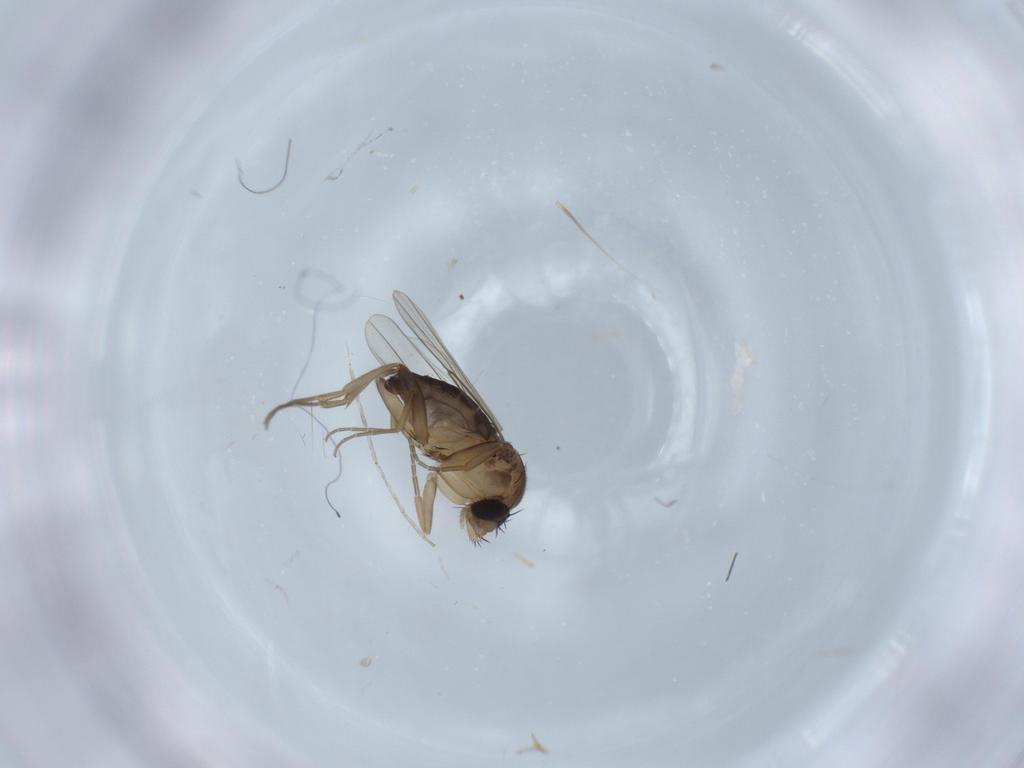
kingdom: Animalia
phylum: Arthropoda
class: Insecta
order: Diptera
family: Phoridae
